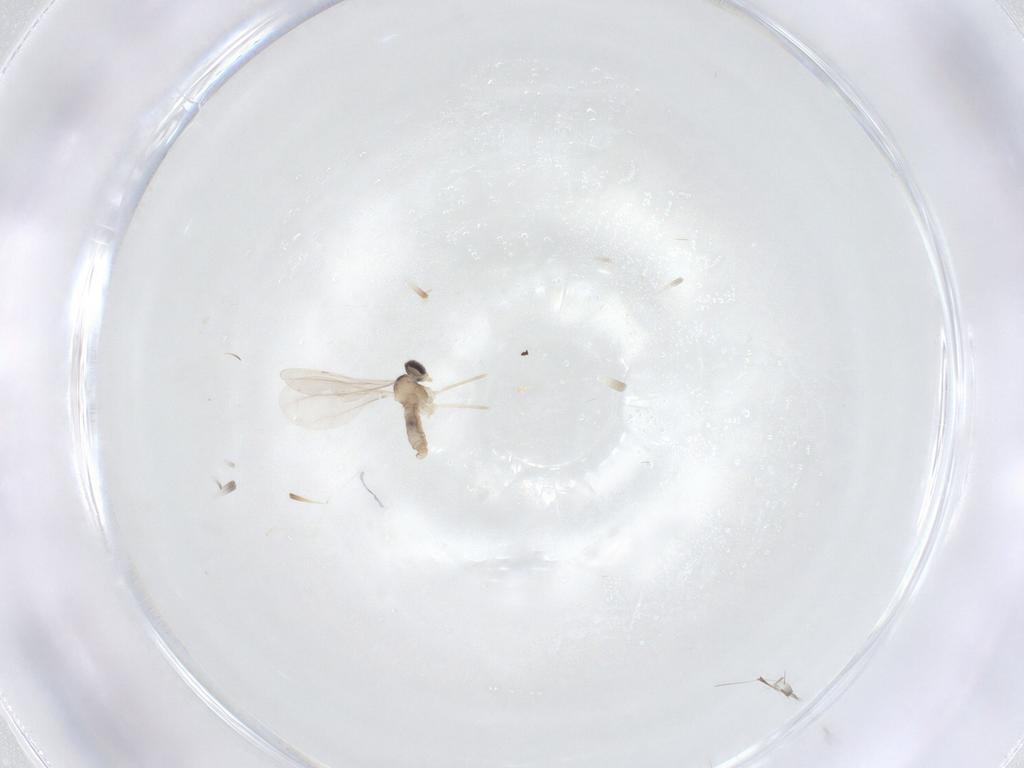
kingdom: Animalia
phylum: Arthropoda
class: Insecta
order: Diptera
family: Cecidomyiidae
